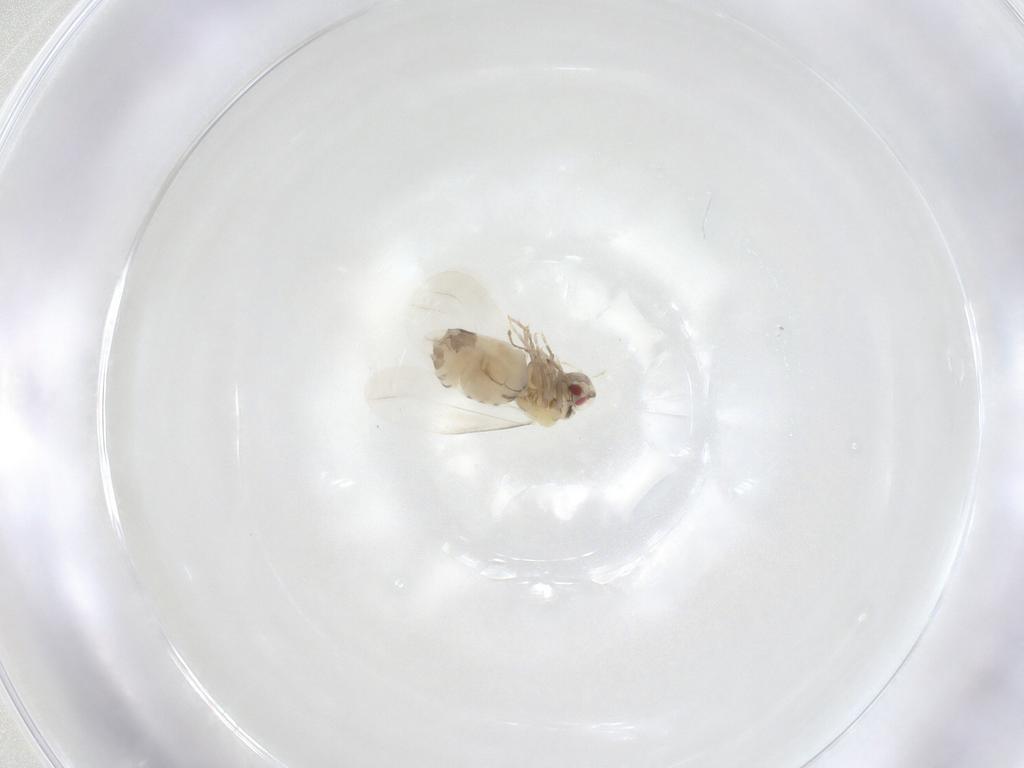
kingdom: Animalia
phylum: Arthropoda
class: Insecta
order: Hemiptera
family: Aleyrodidae
